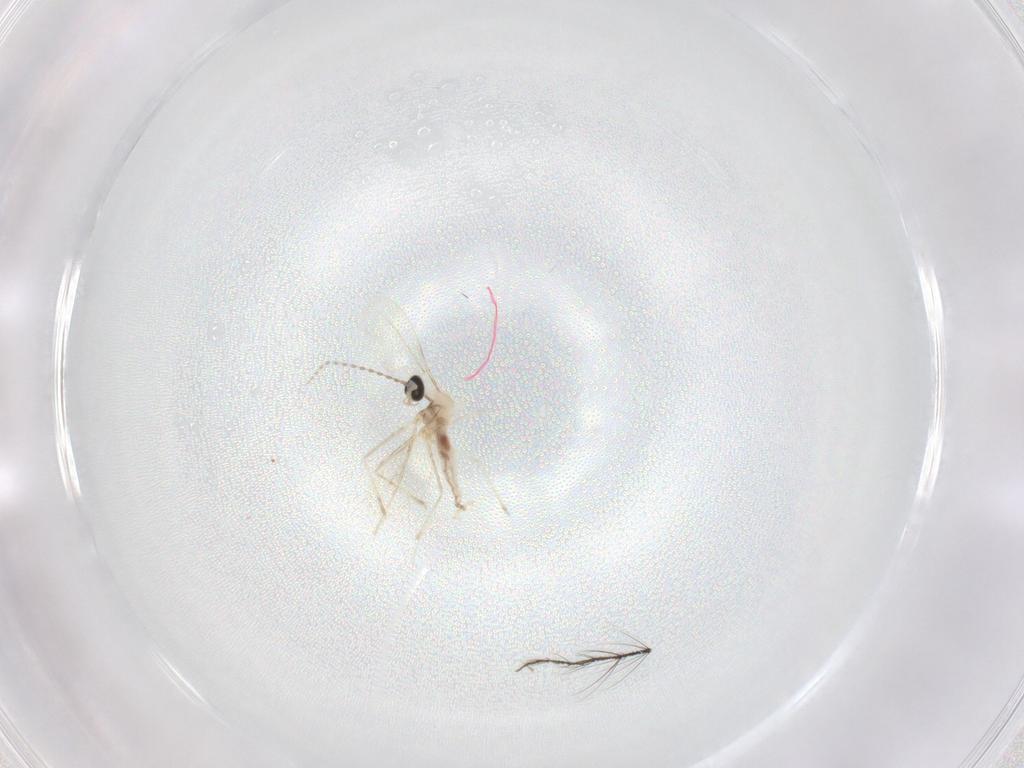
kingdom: Animalia
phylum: Arthropoda
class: Insecta
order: Diptera
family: Cecidomyiidae
